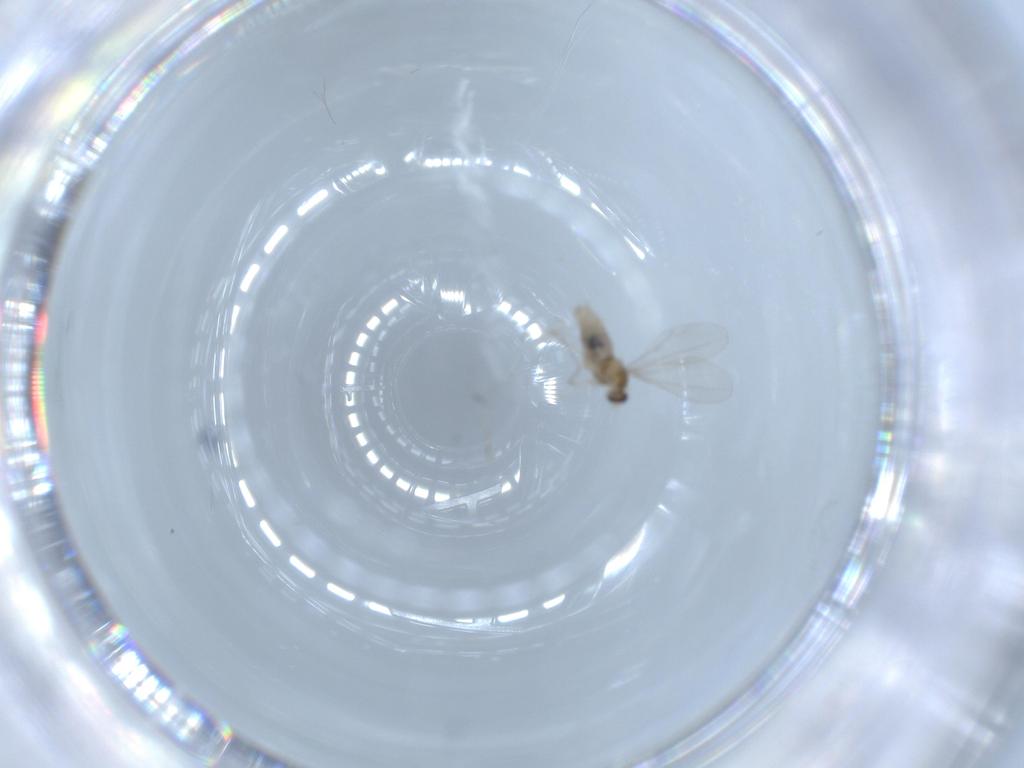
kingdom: Animalia
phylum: Arthropoda
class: Insecta
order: Diptera
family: Cecidomyiidae
